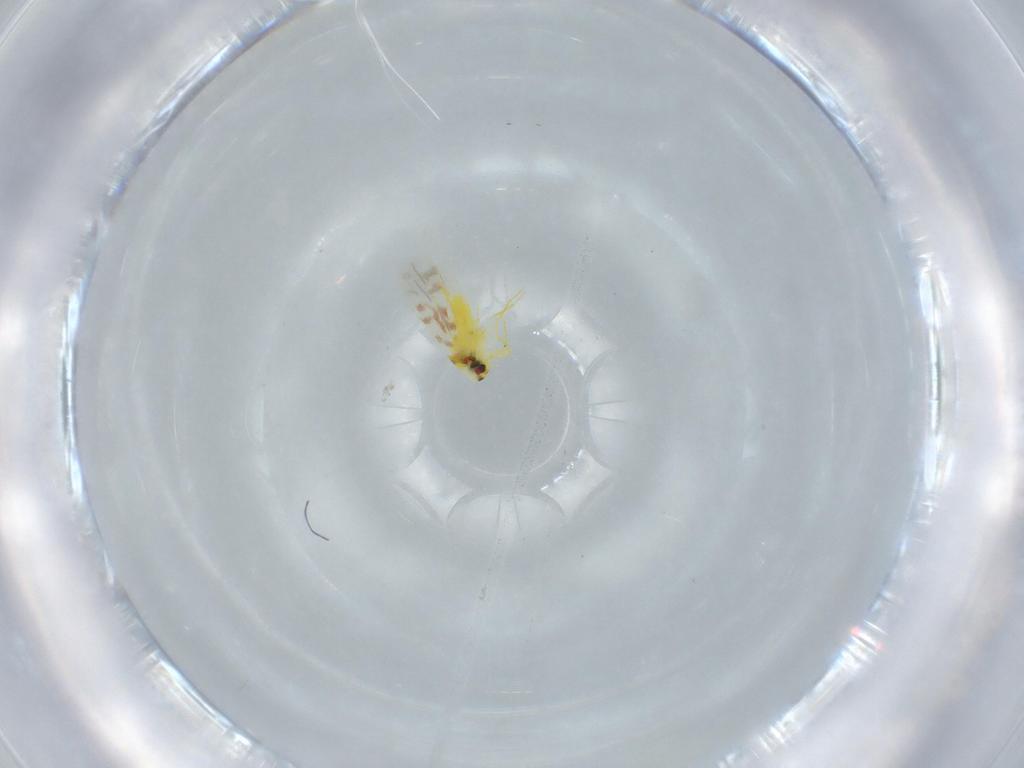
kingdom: Animalia
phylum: Arthropoda
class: Insecta
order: Hemiptera
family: Aleyrodidae
